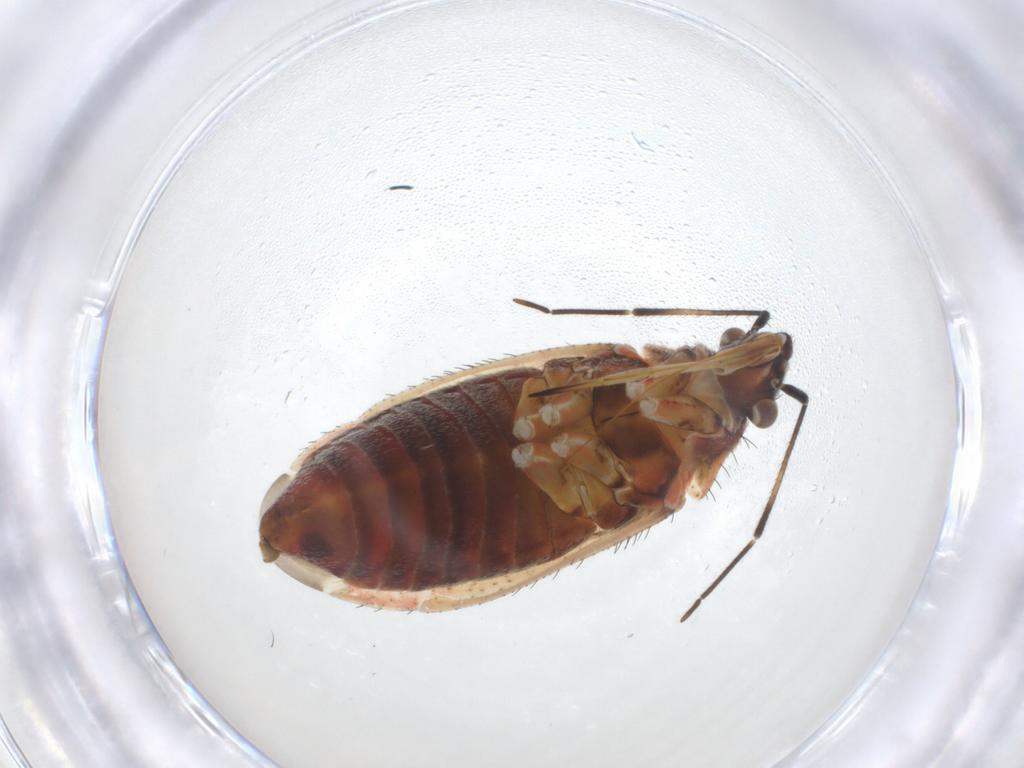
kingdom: Animalia
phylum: Arthropoda
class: Insecta
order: Hemiptera
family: Miridae
